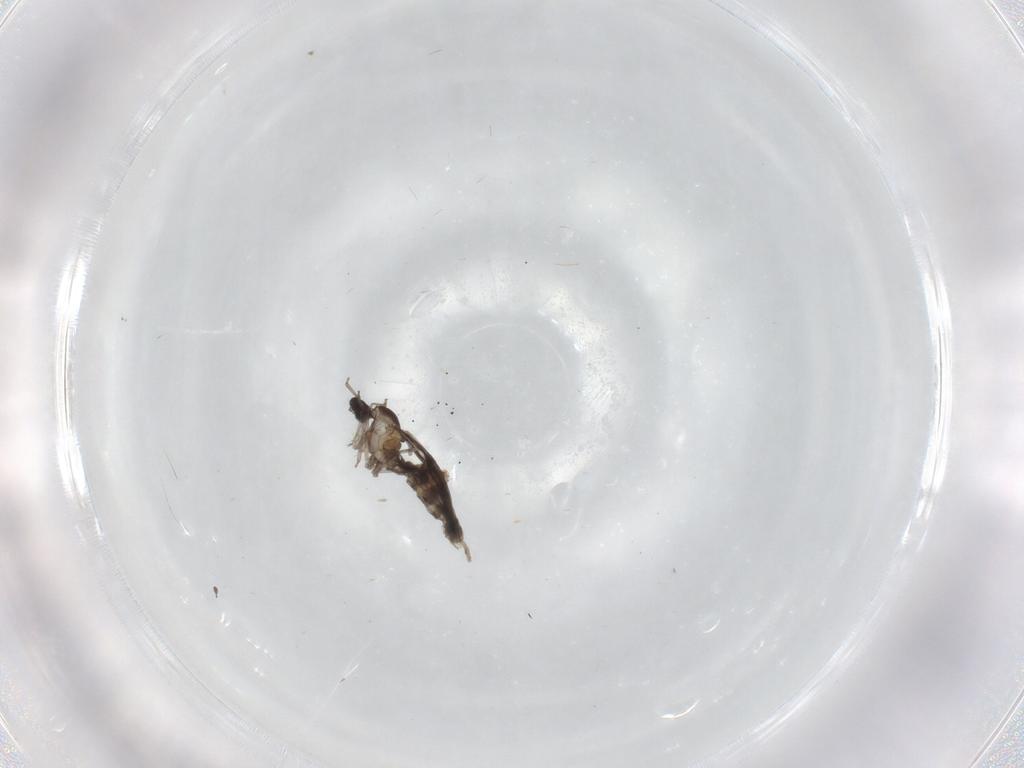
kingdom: Animalia
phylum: Arthropoda
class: Insecta
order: Diptera
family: Cecidomyiidae
